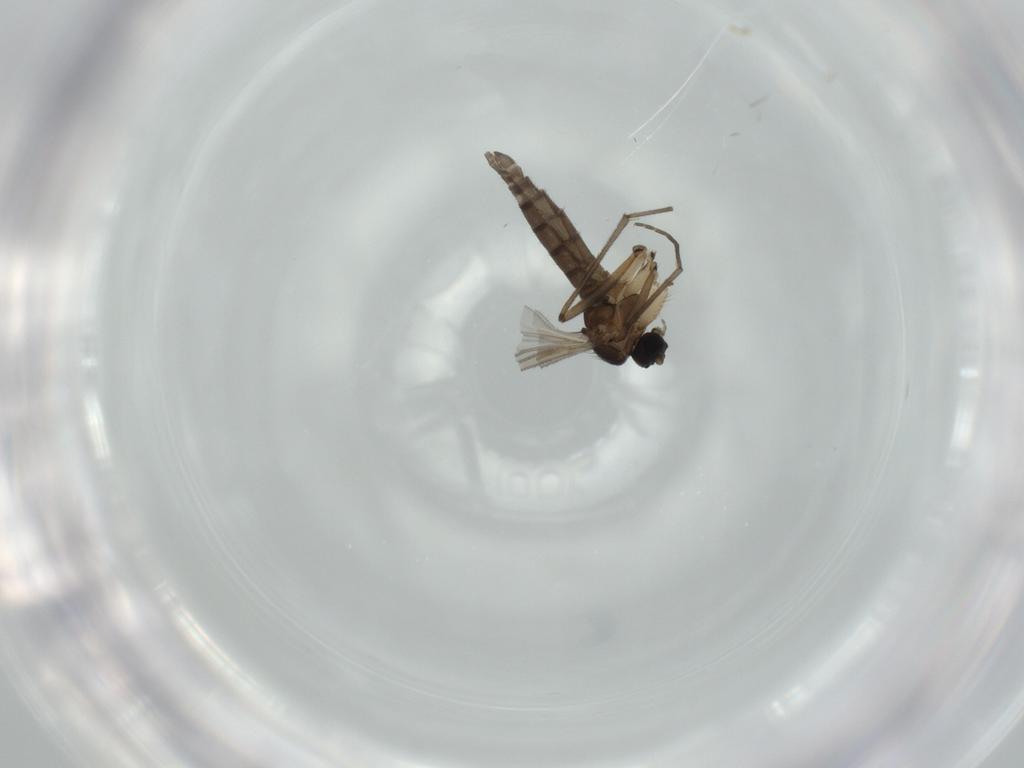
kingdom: Animalia
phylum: Arthropoda
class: Insecta
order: Diptera
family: Sciaridae
